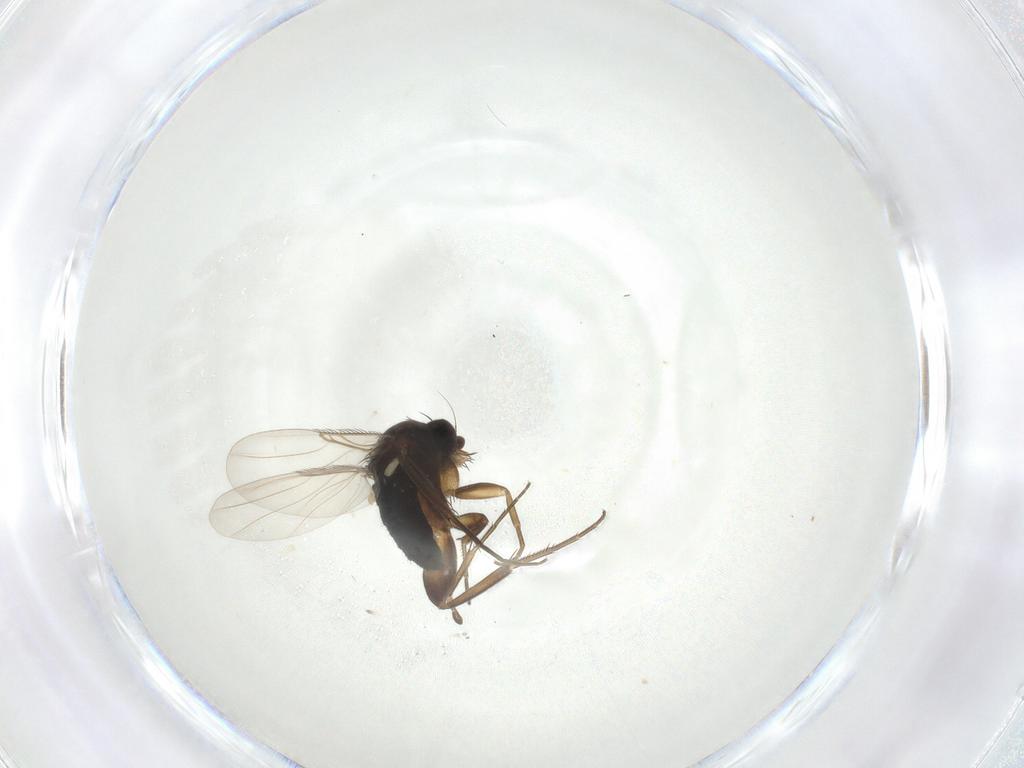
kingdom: Animalia
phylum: Arthropoda
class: Insecta
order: Diptera
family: Phoridae
